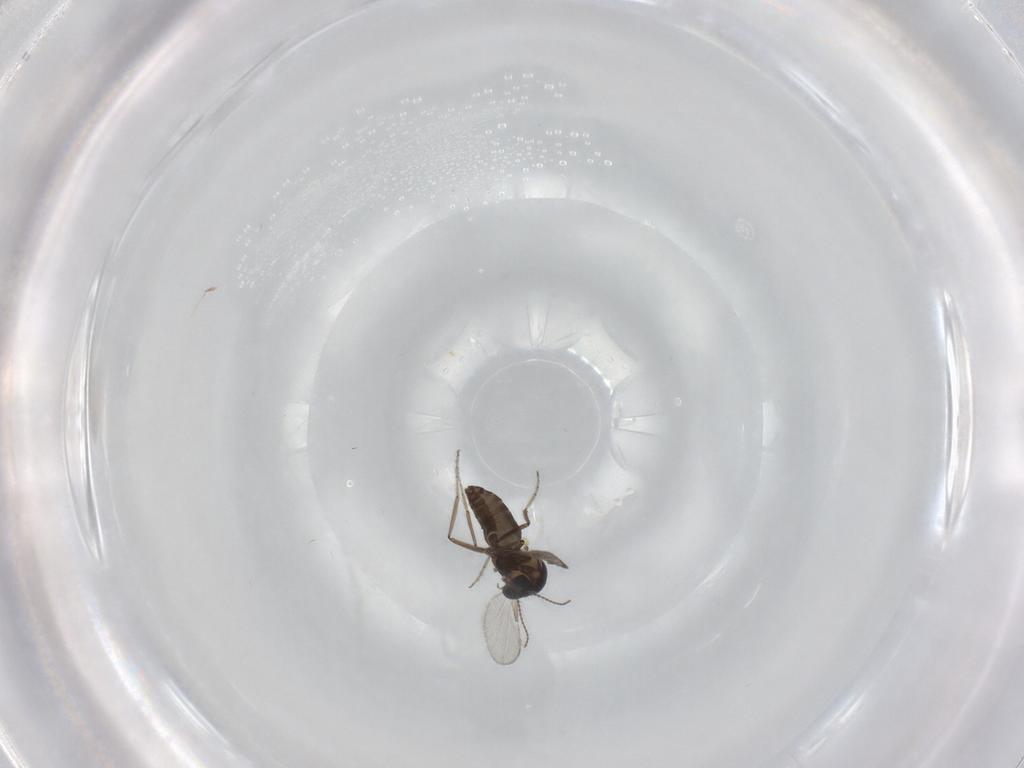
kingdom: Animalia
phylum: Arthropoda
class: Insecta
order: Diptera
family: Ceratopogonidae
